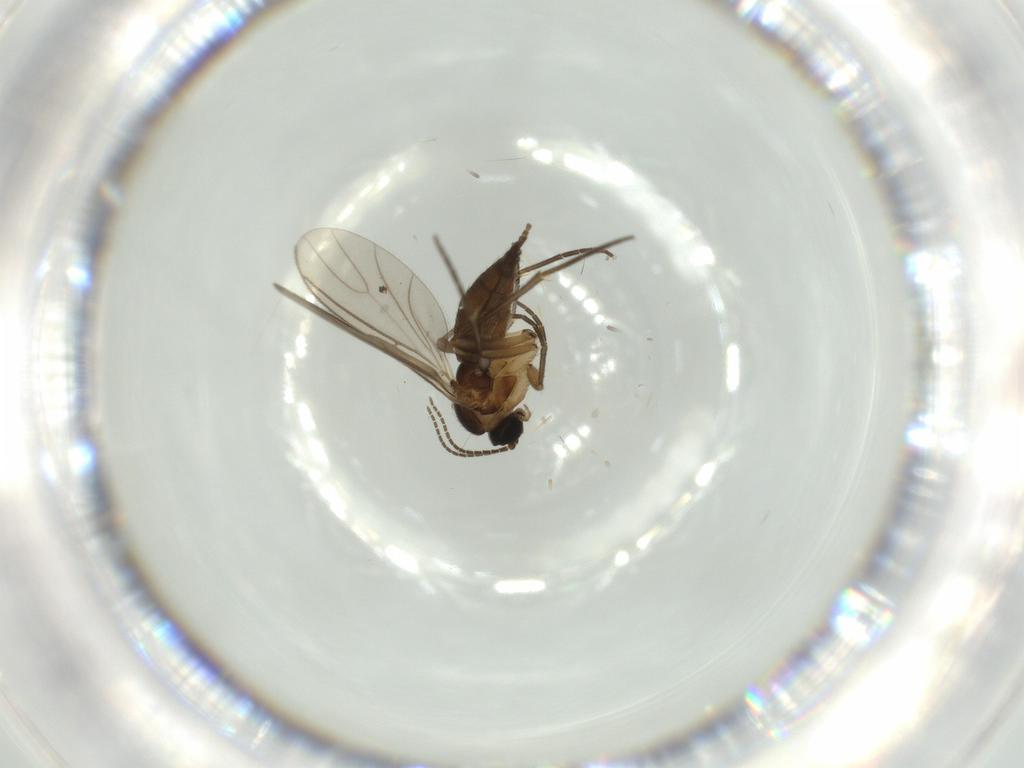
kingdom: Animalia
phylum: Arthropoda
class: Insecta
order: Diptera
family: Sciaridae
